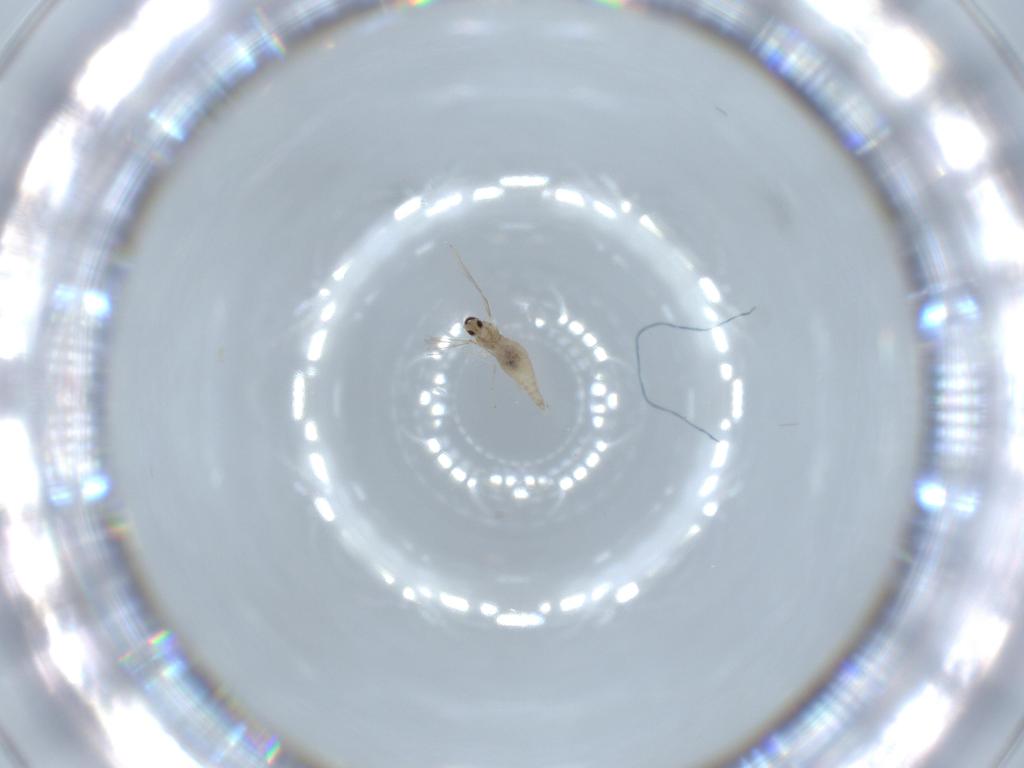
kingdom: Animalia
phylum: Arthropoda
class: Insecta
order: Diptera
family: Cecidomyiidae
